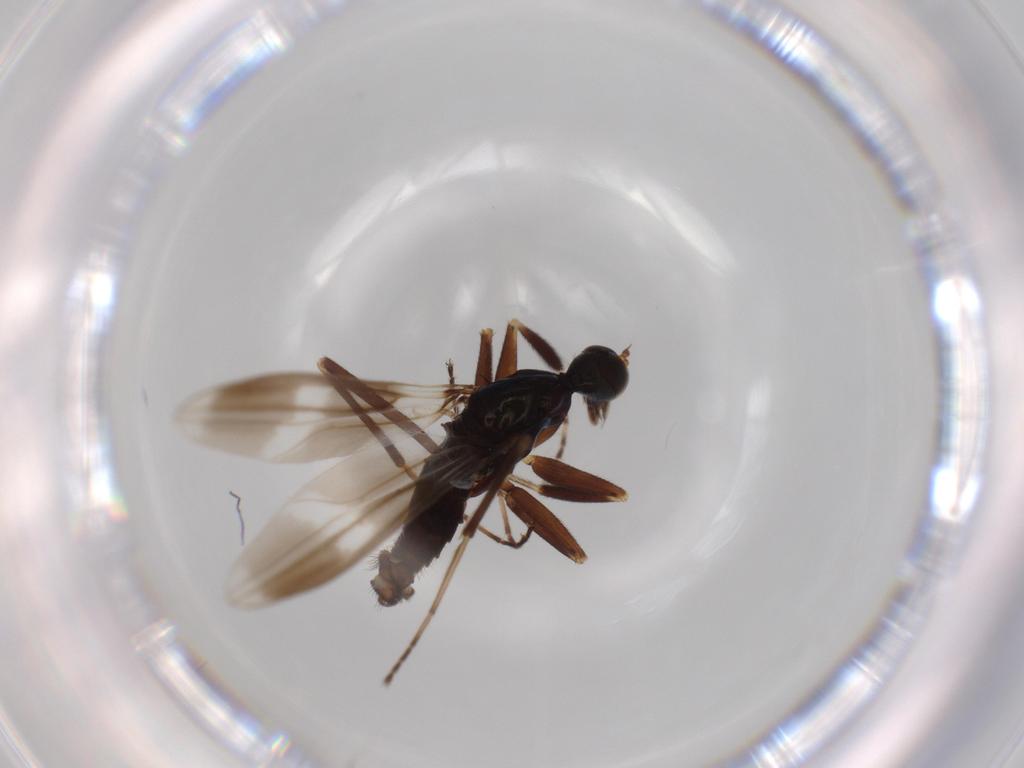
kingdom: Animalia
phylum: Arthropoda
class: Insecta
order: Diptera
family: Hybotidae
